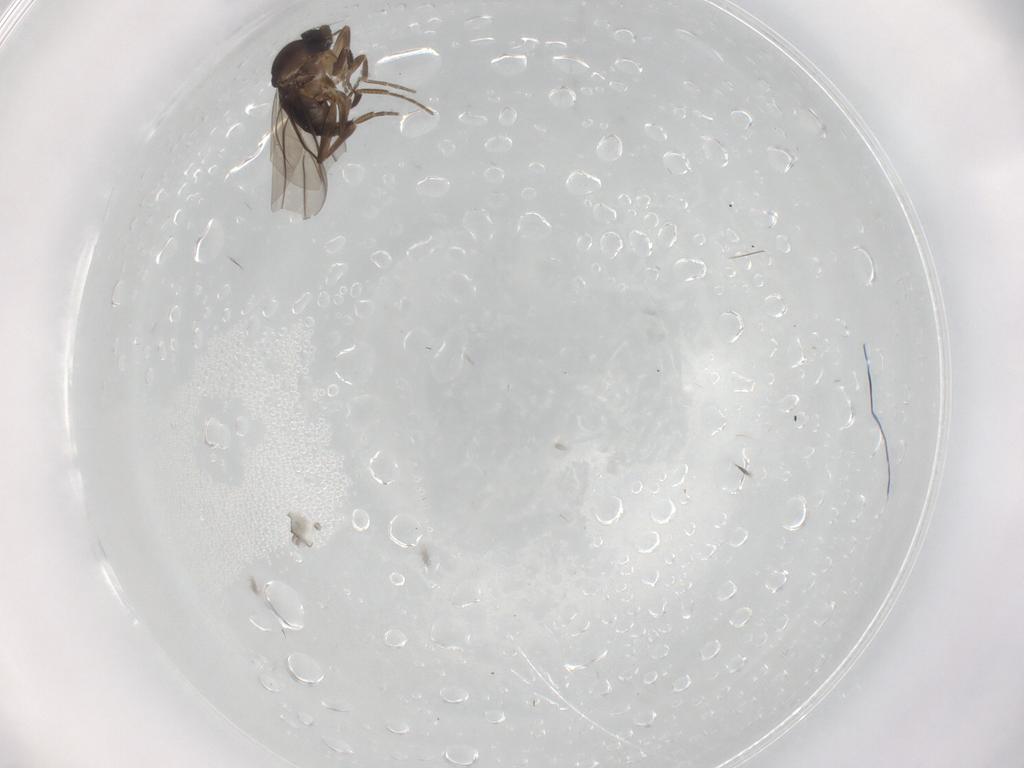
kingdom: Animalia
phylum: Arthropoda
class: Insecta
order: Diptera
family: Phoridae
